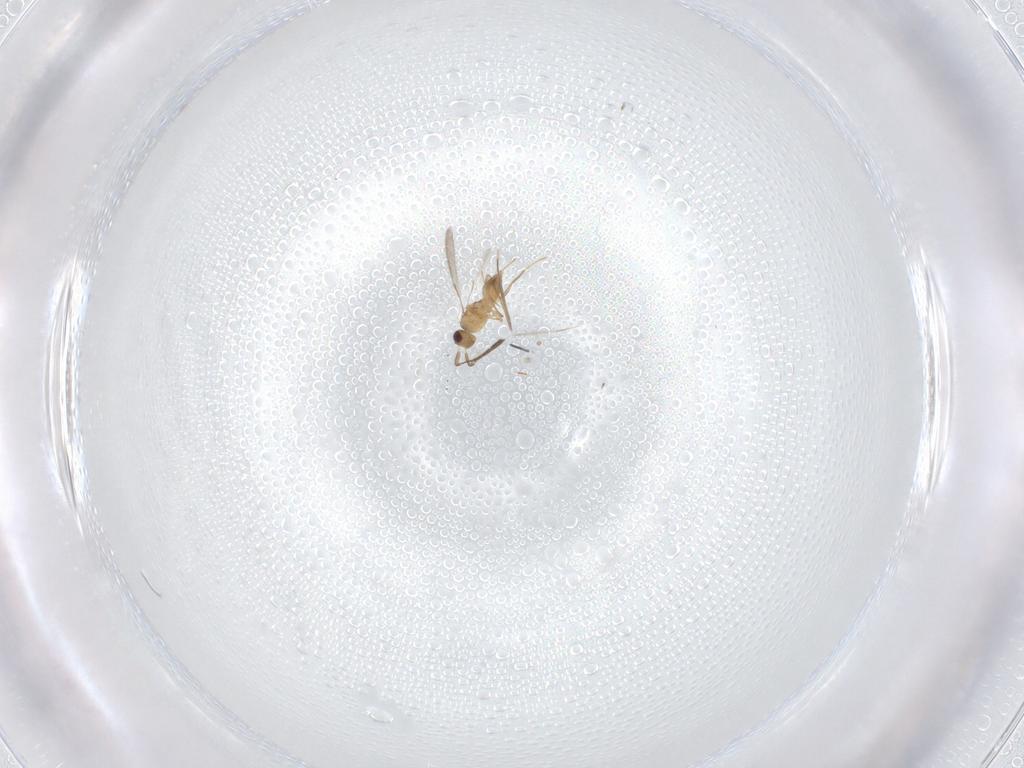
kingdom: Animalia
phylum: Arthropoda
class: Insecta
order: Hymenoptera
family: Mymaridae
